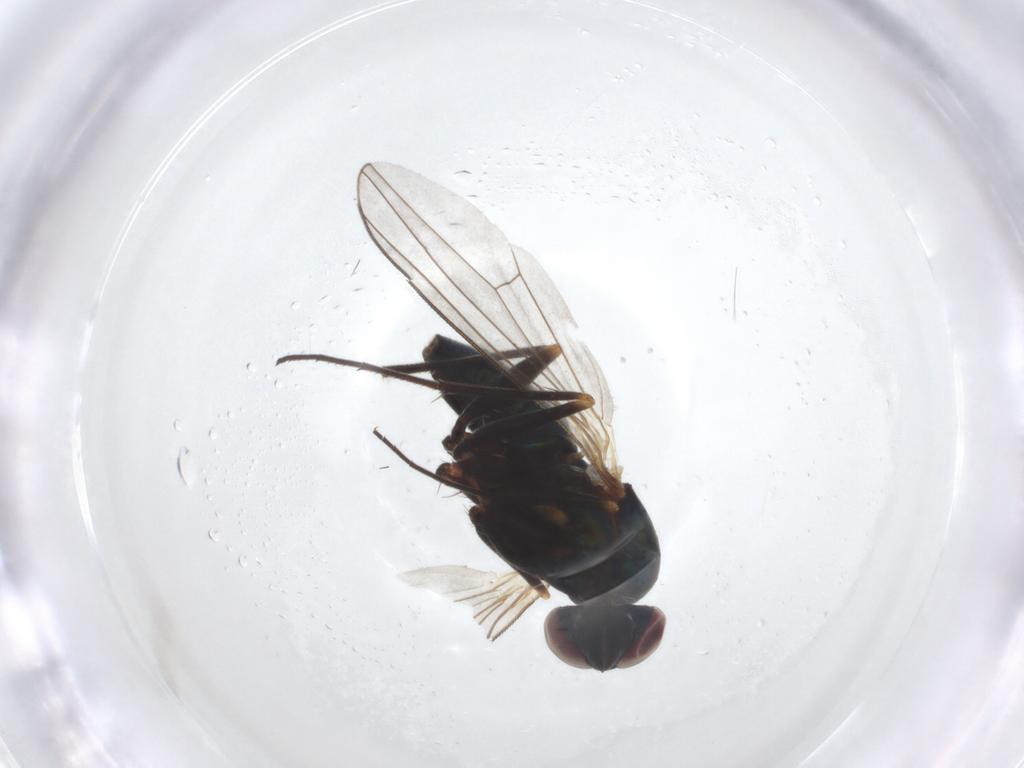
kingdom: Animalia
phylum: Arthropoda
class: Insecta
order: Diptera
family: Dolichopodidae
